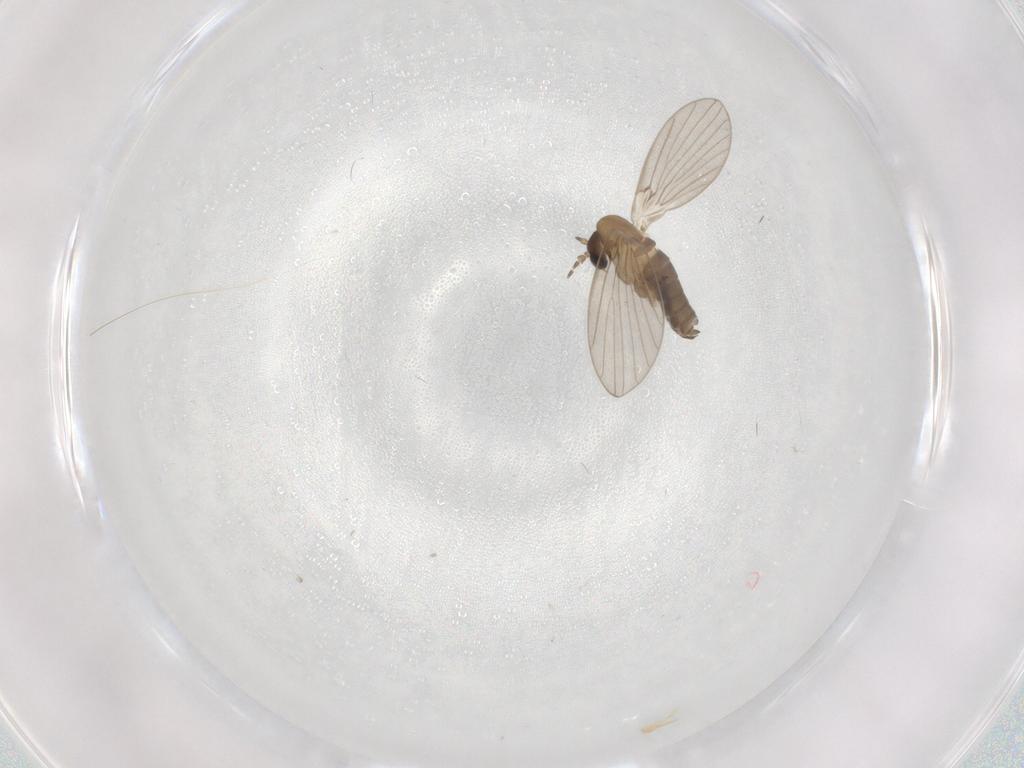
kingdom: Animalia
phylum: Arthropoda
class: Insecta
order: Diptera
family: Psychodidae
